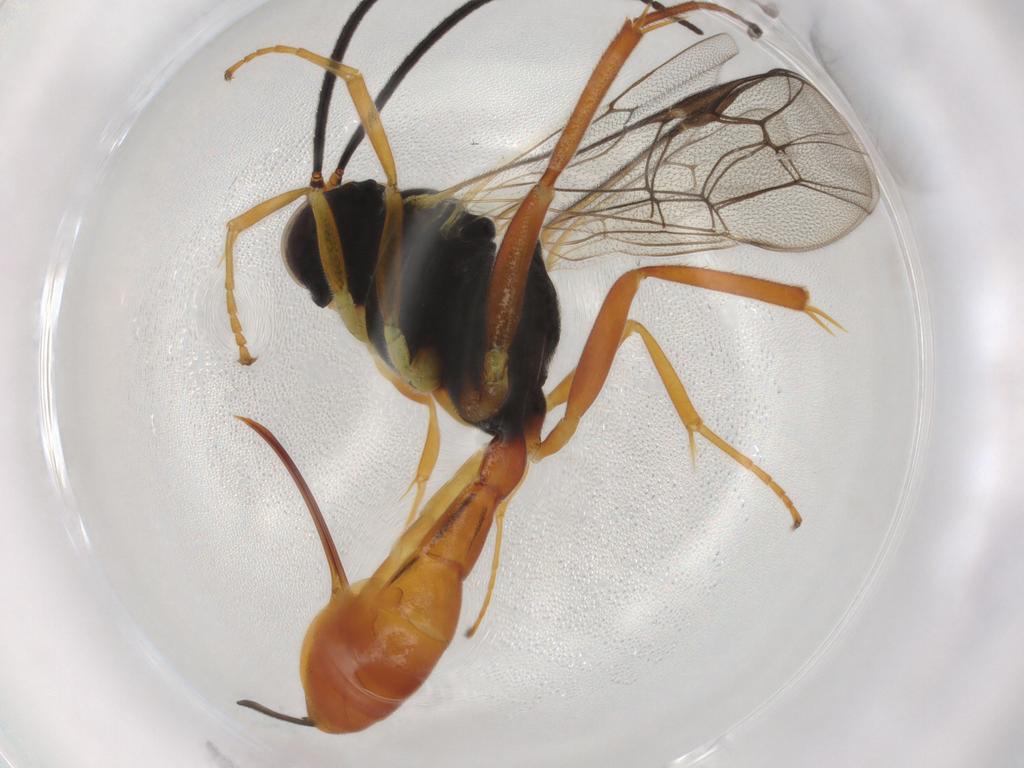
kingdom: Animalia
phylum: Arthropoda
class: Insecta
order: Hymenoptera
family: Ichneumonidae
